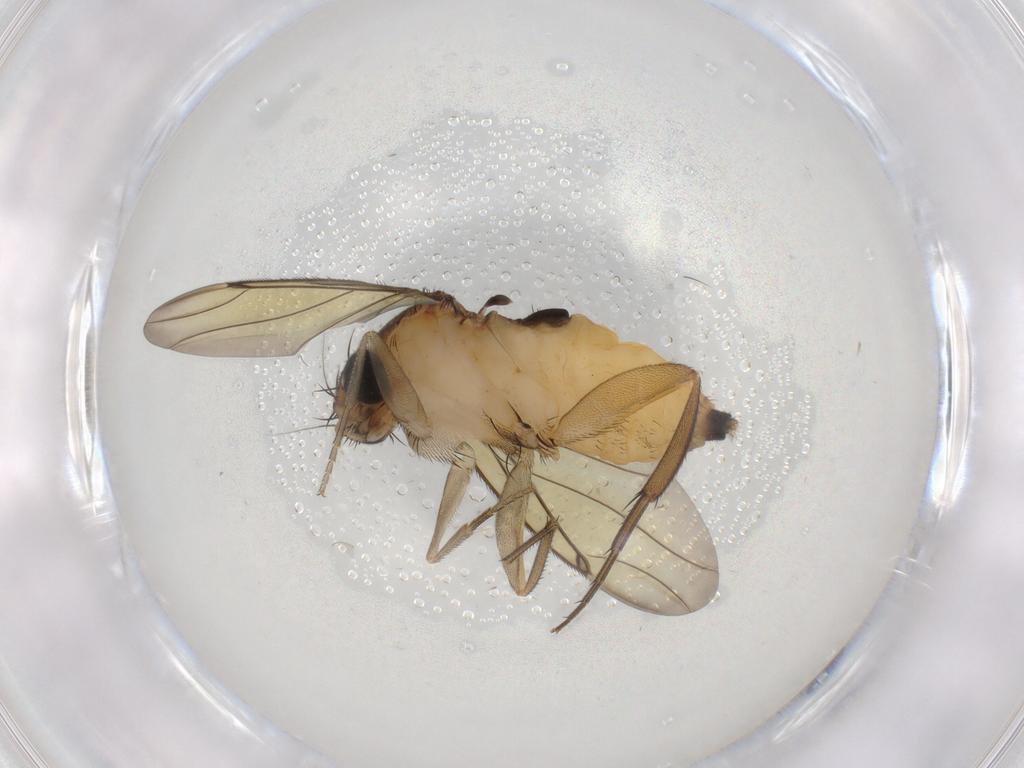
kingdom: Animalia
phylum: Arthropoda
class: Insecta
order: Diptera
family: Phoridae
